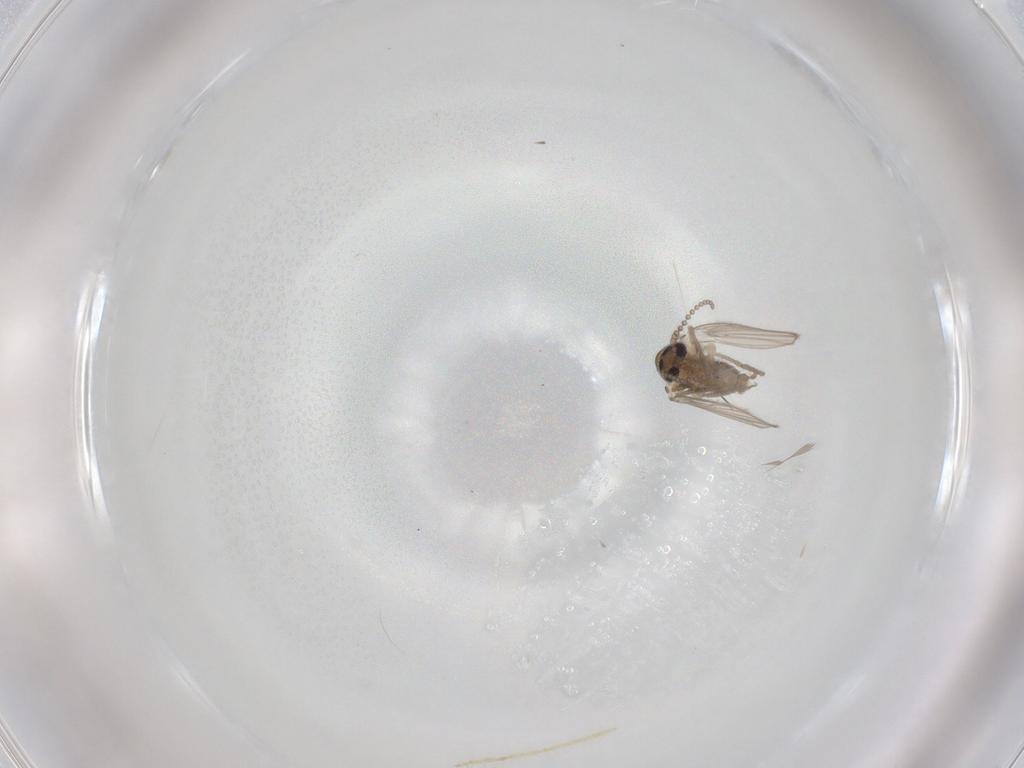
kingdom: Animalia
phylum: Arthropoda
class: Insecta
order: Diptera
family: Psychodidae
